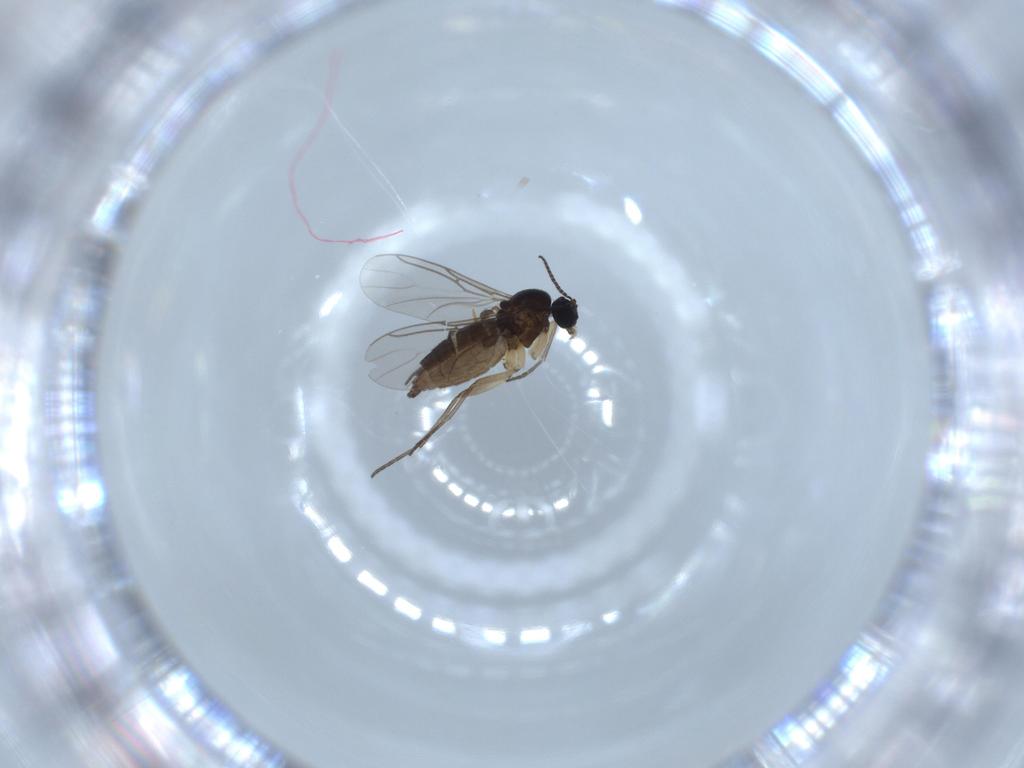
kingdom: Animalia
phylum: Arthropoda
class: Insecta
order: Diptera
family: Sciaridae
